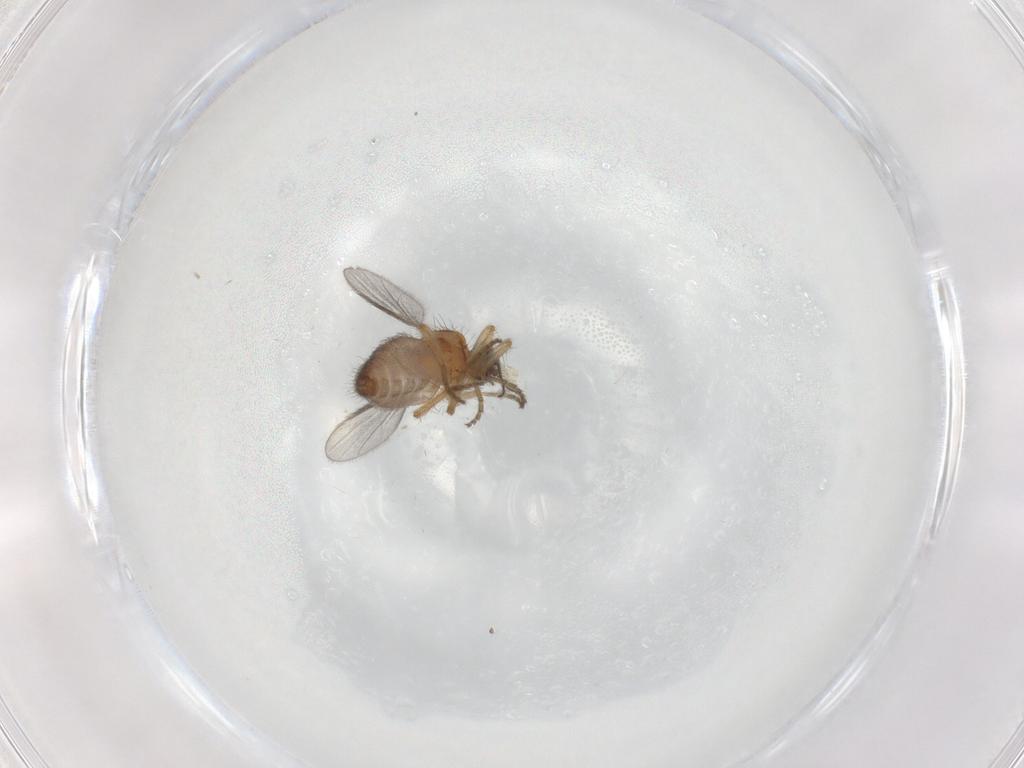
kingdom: Animalia
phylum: Arthropoda
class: Insecta
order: Diptera
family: Ceratopogonidae
